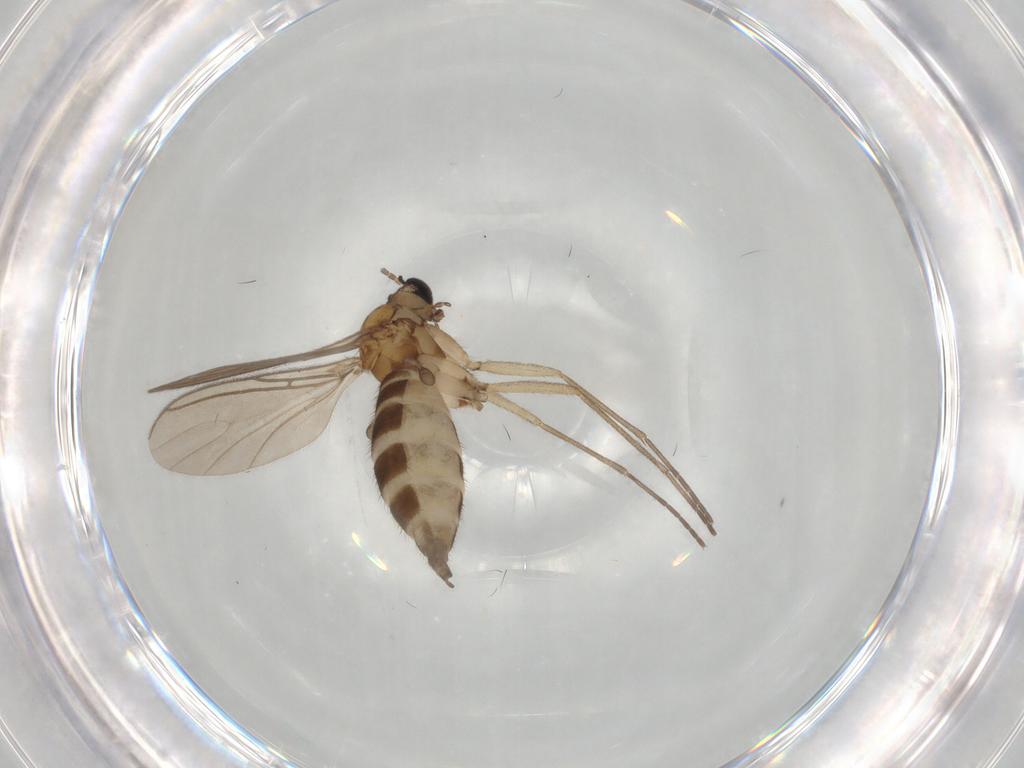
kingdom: Animalia
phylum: Arthropoda
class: Insecta
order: Diptera
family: Sciaridae
